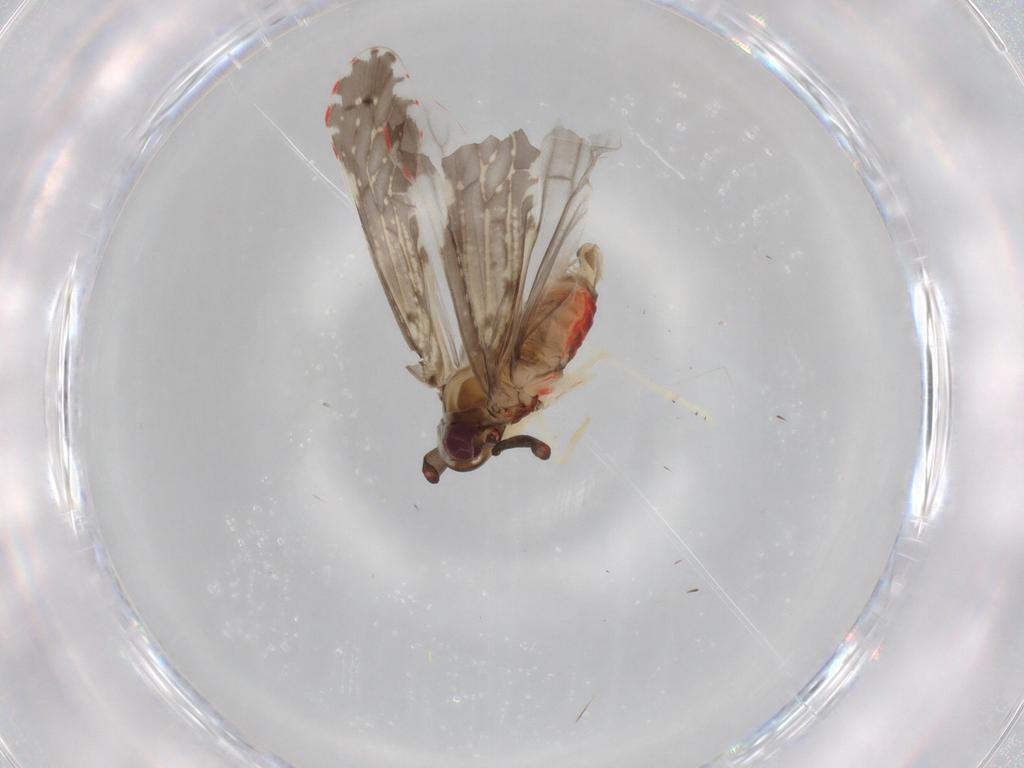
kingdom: Animalia
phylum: Arthropoda
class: Insecta
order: Hemiptera
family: Derbidae
